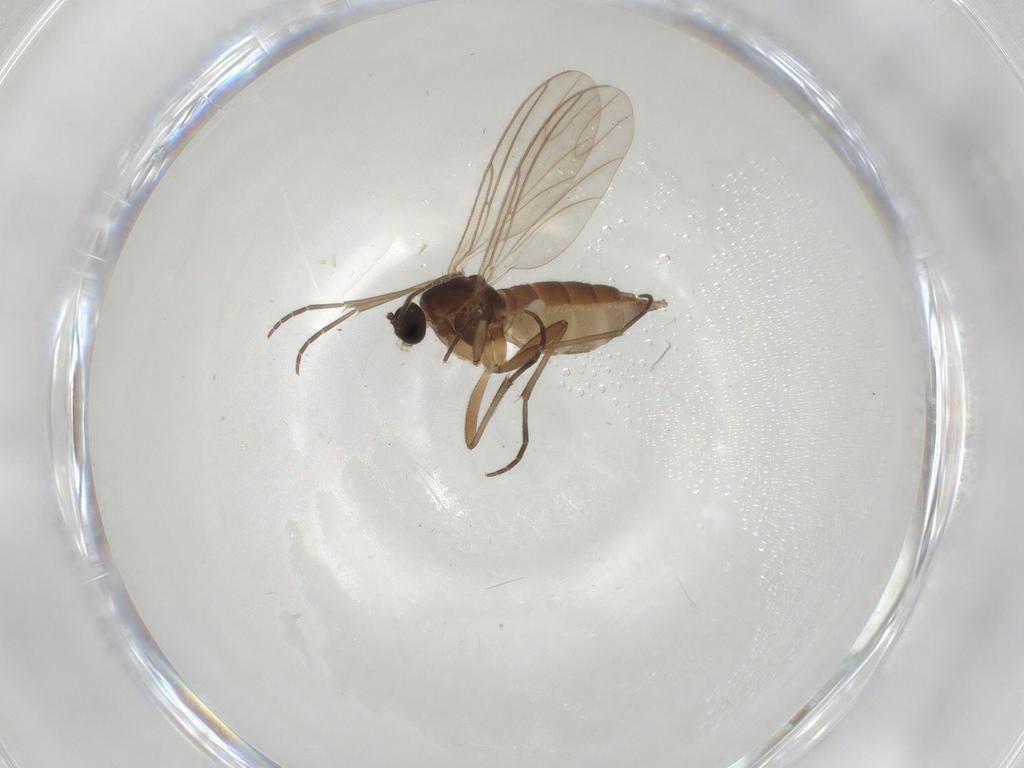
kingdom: Animalia
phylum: Arthropoda
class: Insecta
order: Diptera
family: Sciaridae
